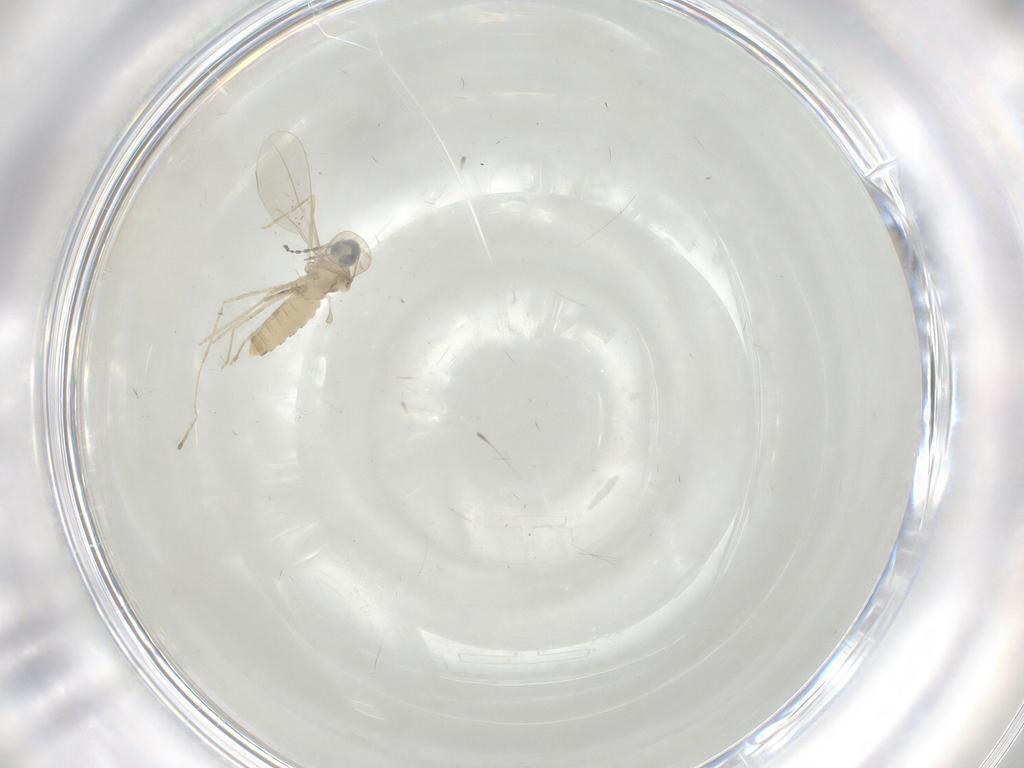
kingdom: Animalia
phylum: Arthropoda
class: Insecta
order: Diptera
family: Cecidomyiidae
